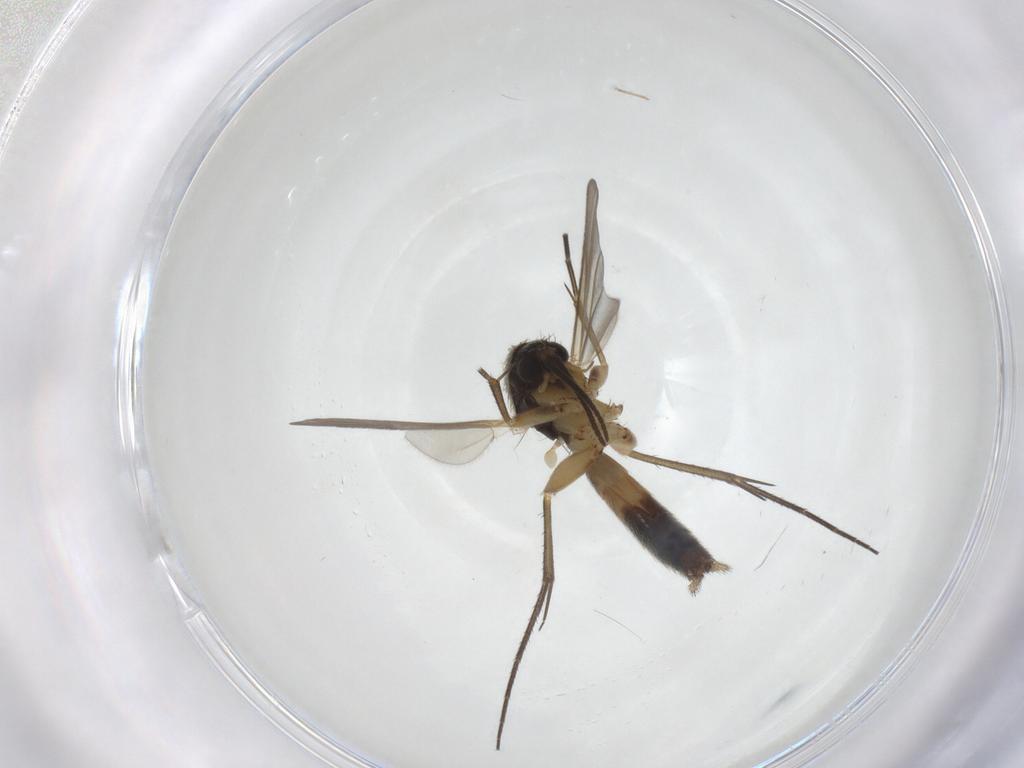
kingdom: Animalia
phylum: Arthropoda
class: Insecta
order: Diptera
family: Mycetophilidae
